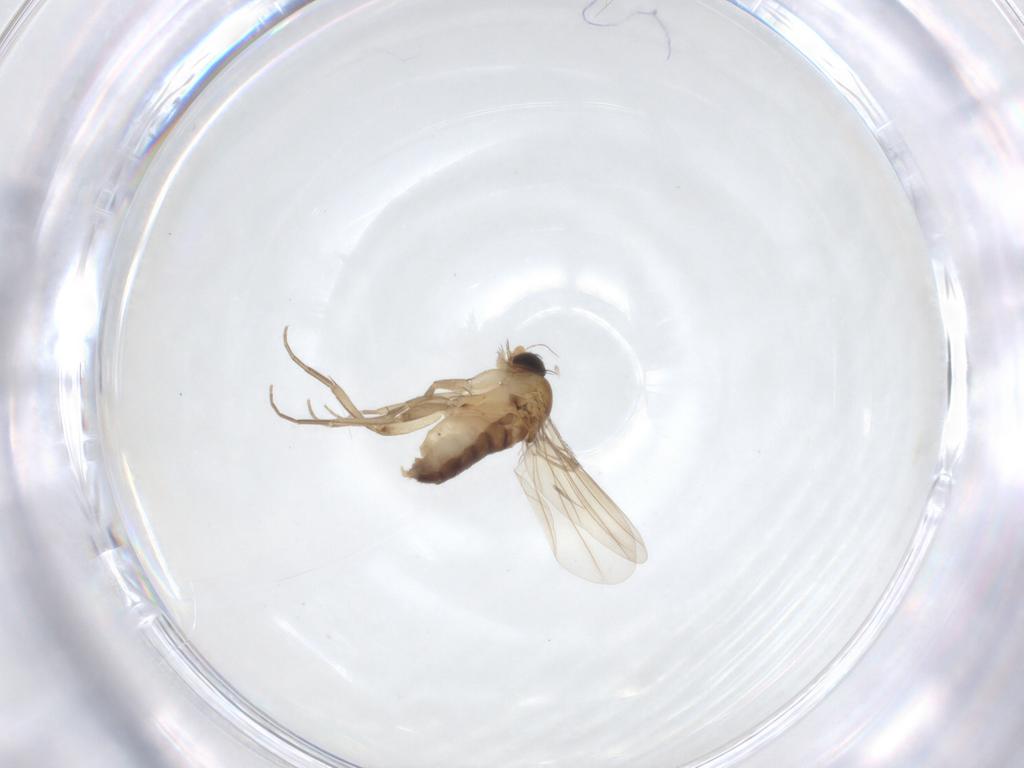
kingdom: Animalia
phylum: Arthropoda
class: Insecta
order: Diptera
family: Phoridae
